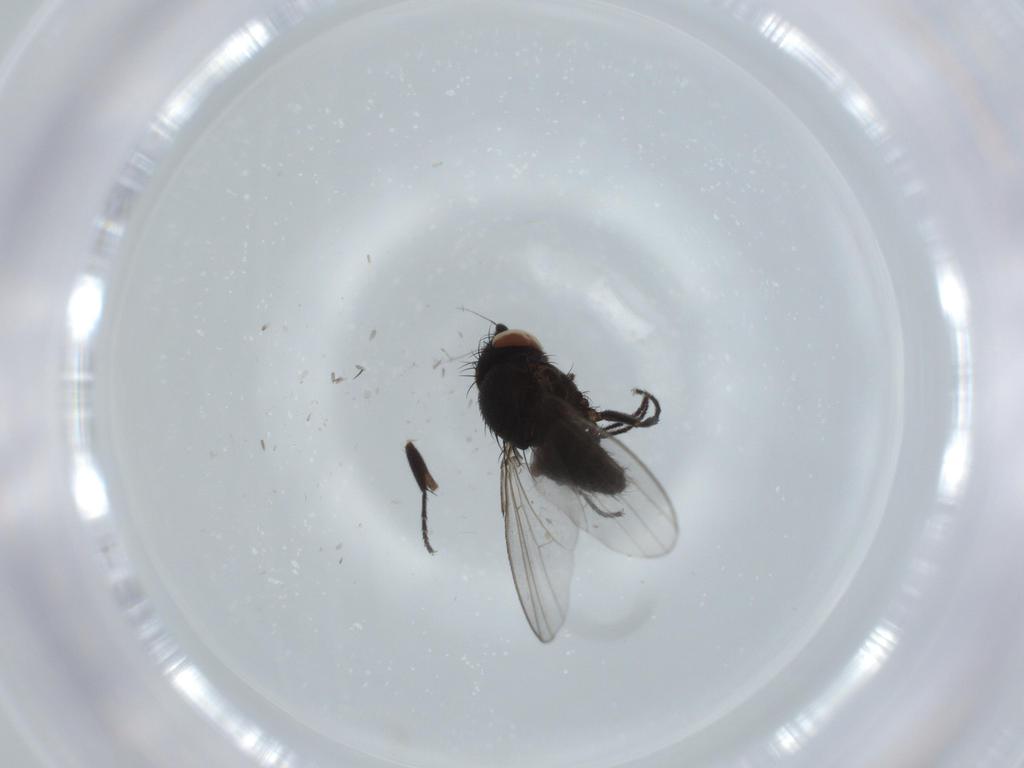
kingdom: Animalia
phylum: Arthropoda
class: Insecta
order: Diptera
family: Milichiidae
